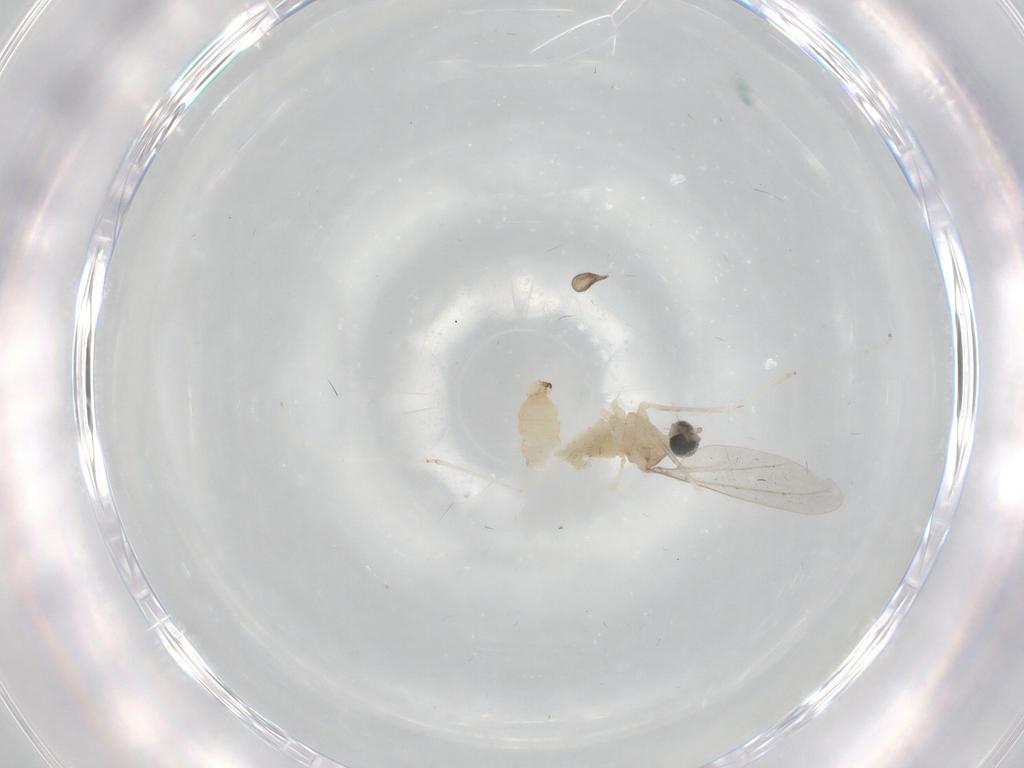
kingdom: Animalia
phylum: Arthropoda
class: Insecta
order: Diptera
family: Cecidomyiidae
